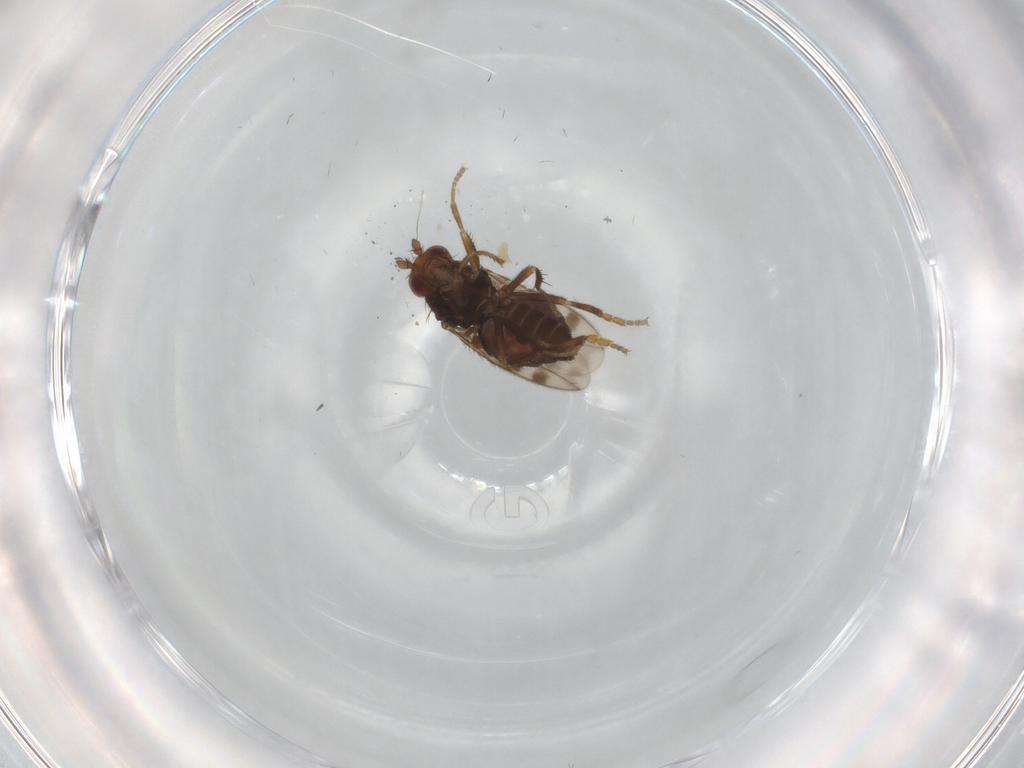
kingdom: Animalia
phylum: Arthropoda
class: Insecta
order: Diptera
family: Sphaeroceridae
